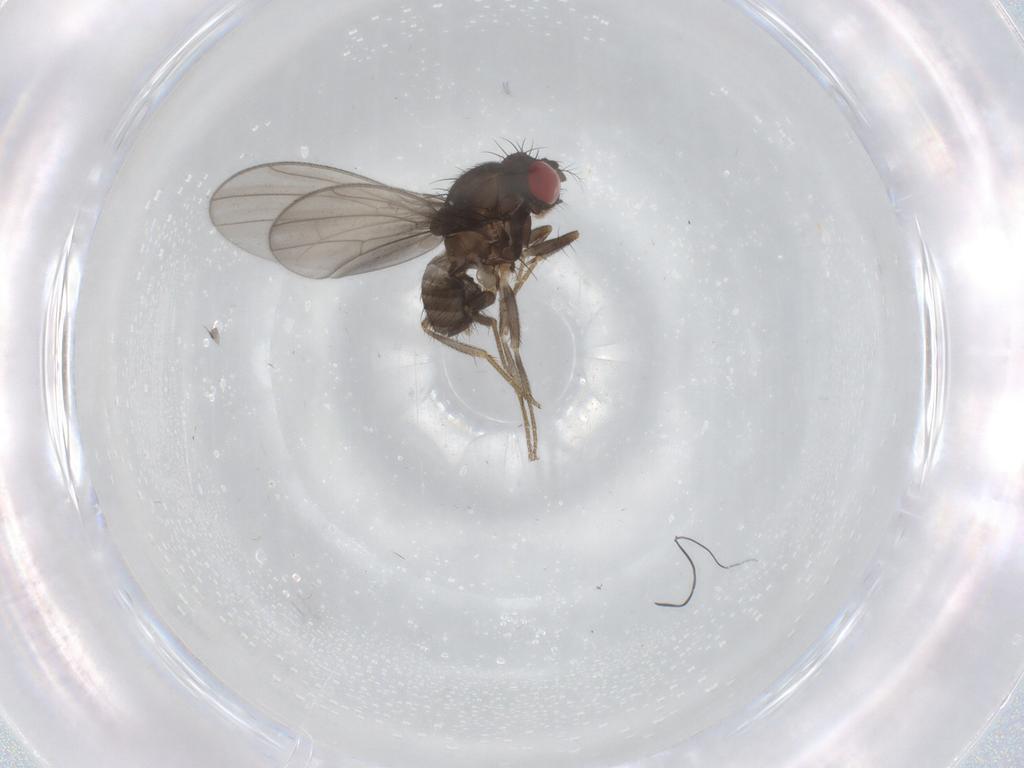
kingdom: Animalia
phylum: Arthropoda
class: Insecta
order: Diptera
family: Drosophilidae
